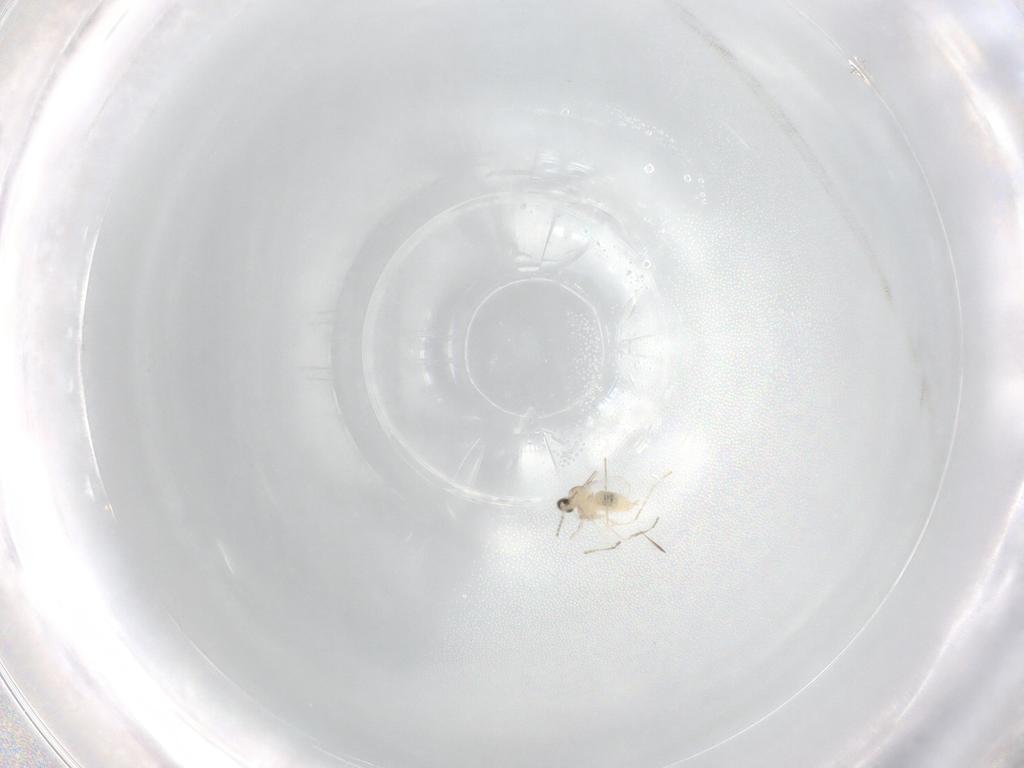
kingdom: Animalia
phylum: Arthropoda
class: Insecta
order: Diptera
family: Cecidomyiidae
